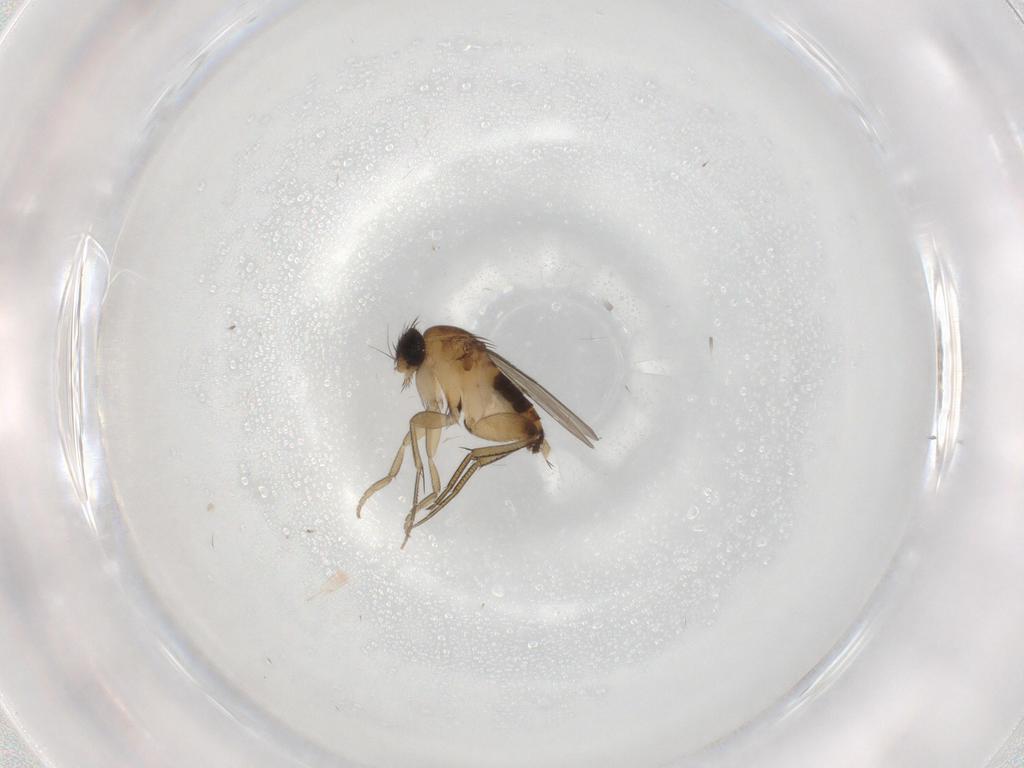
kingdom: Animalia
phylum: Arthropoda
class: Insecta
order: Diptera
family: Phoridae
